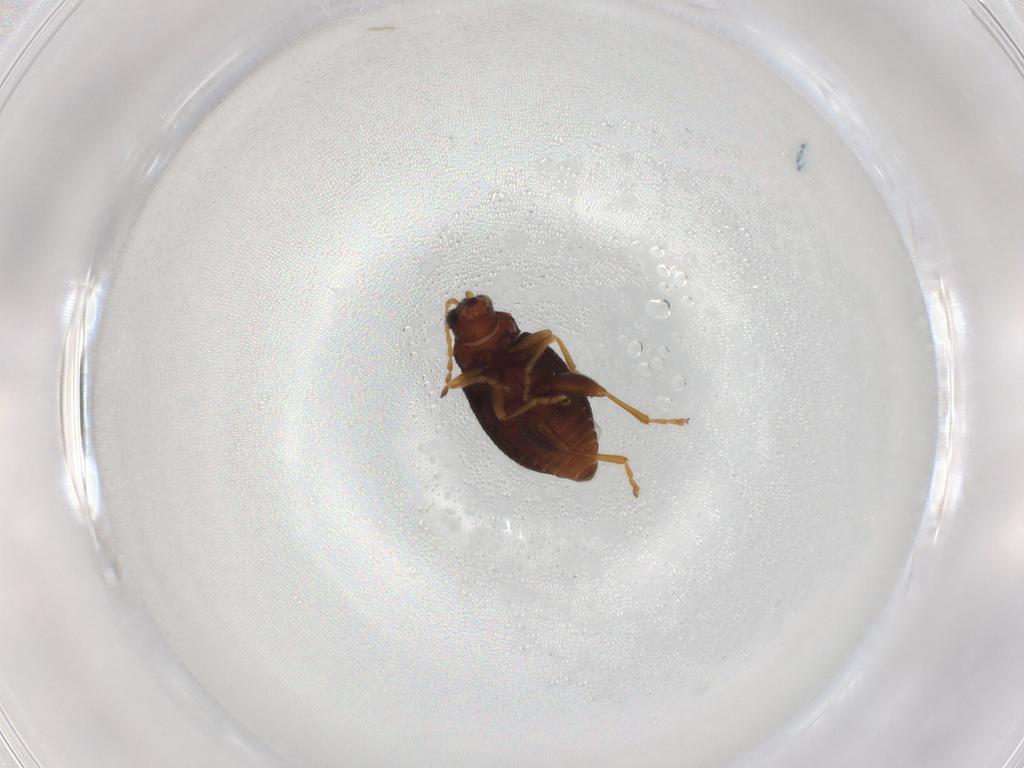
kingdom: Animalia
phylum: Arthropoda
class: Insecta
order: Coleoptera
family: Chrysomelidae
